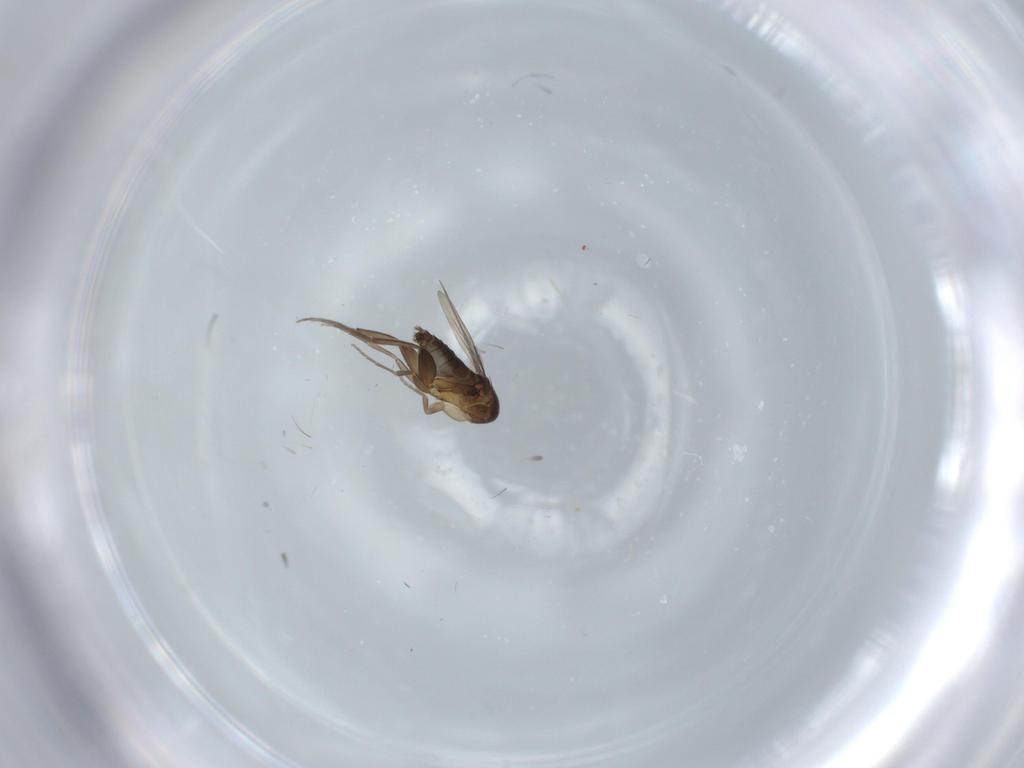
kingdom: Animalia
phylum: Arthropoda
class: Insecta
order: Diptera
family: Phoridae
